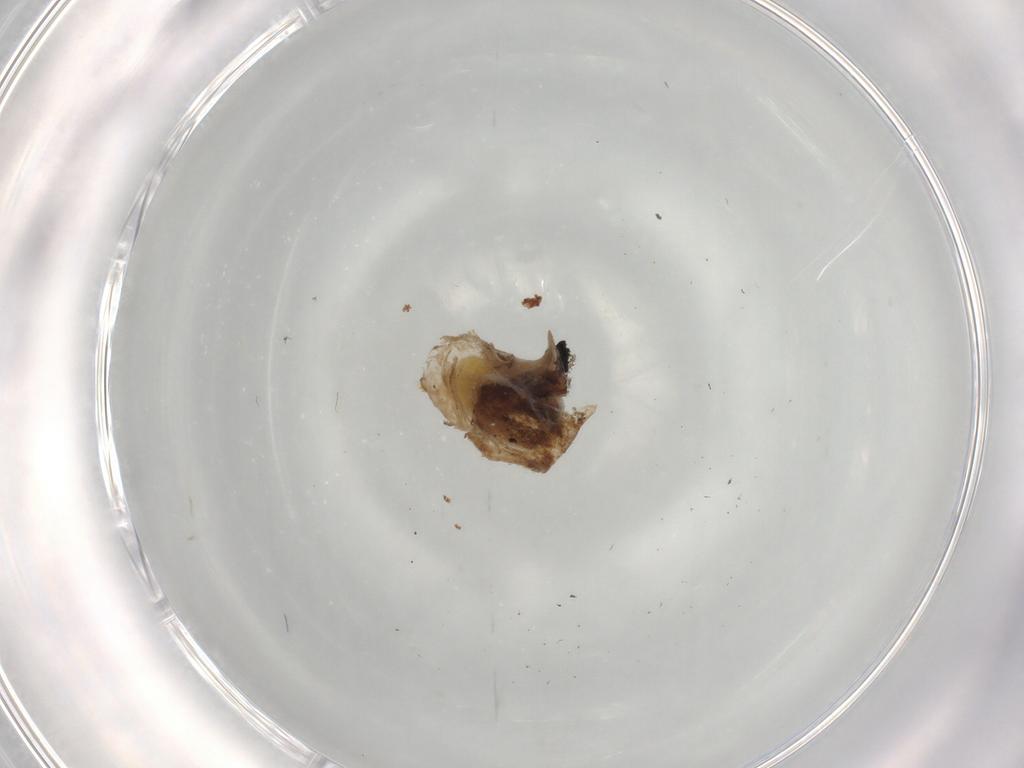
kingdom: Animalia
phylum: Arthropoda
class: Insecta
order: Hymenoptera
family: Torymidae
